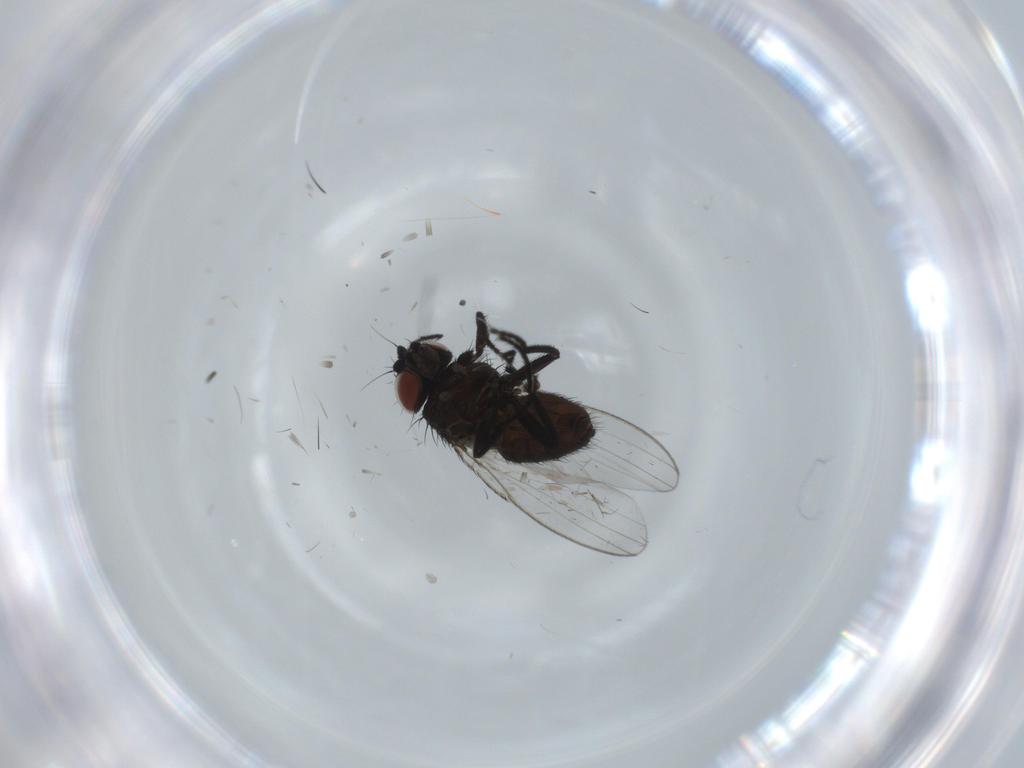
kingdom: Animalia
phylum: Arthropoda
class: Insecta
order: Diptera
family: Milichiidae
